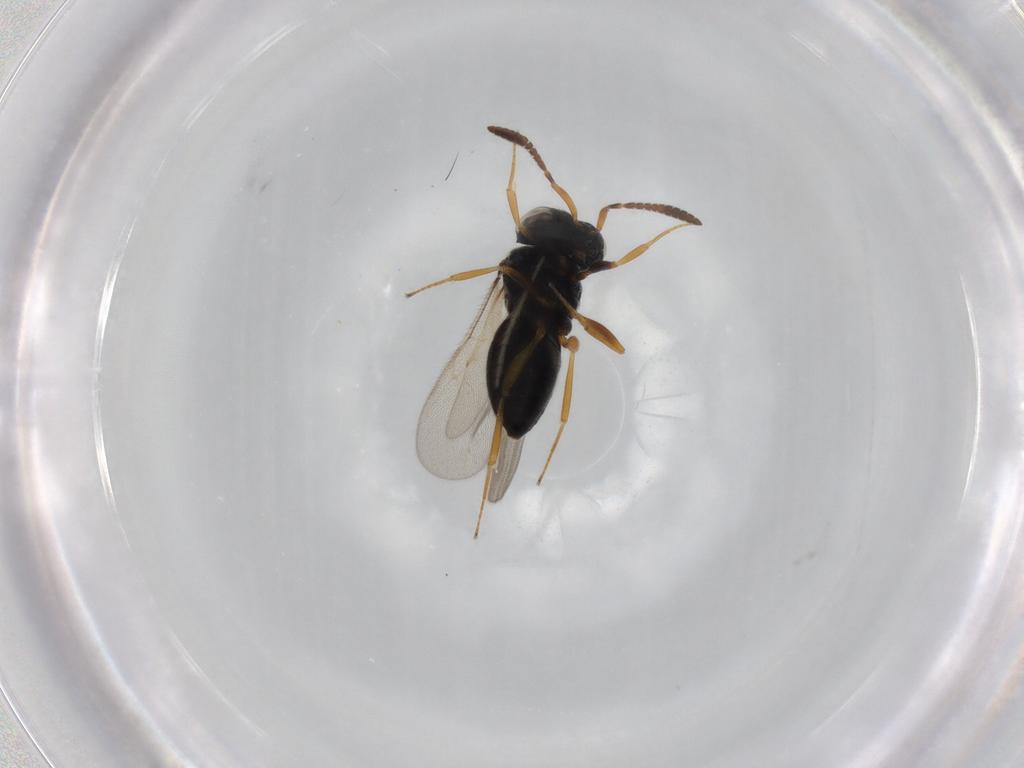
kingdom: Animalia
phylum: Arthropoda
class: Insecta
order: Hymenoptera
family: Scelionidae
